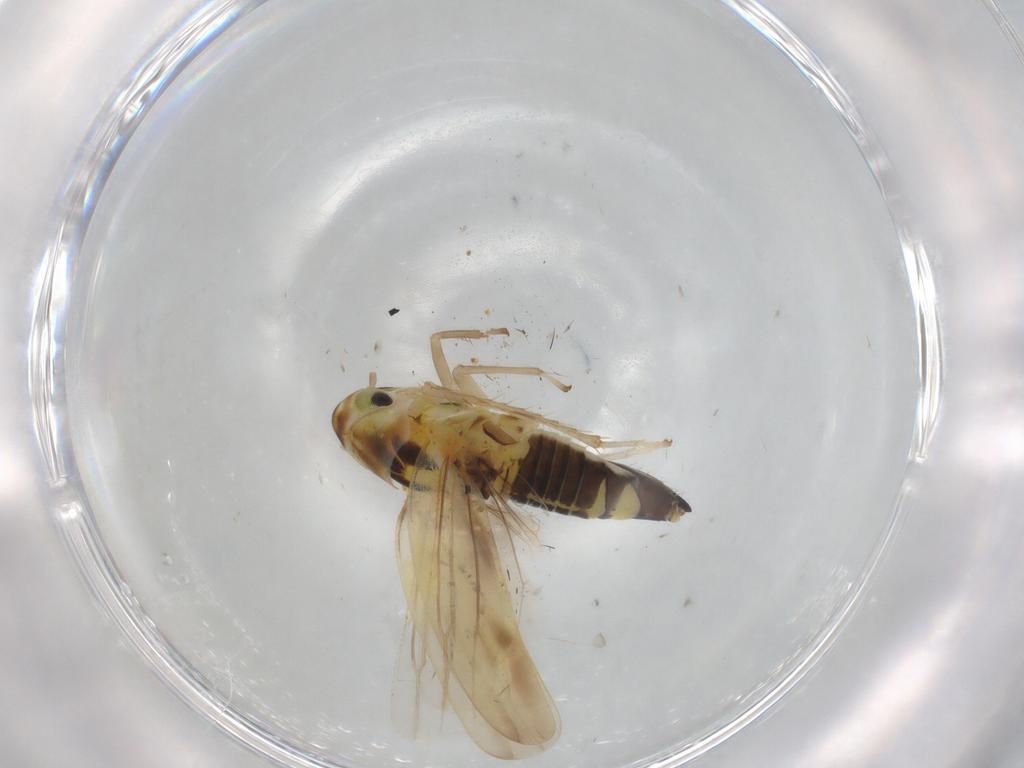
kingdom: Animalia
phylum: Arthropoda
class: Insecta
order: Hemiptera
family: Cicadellidae
